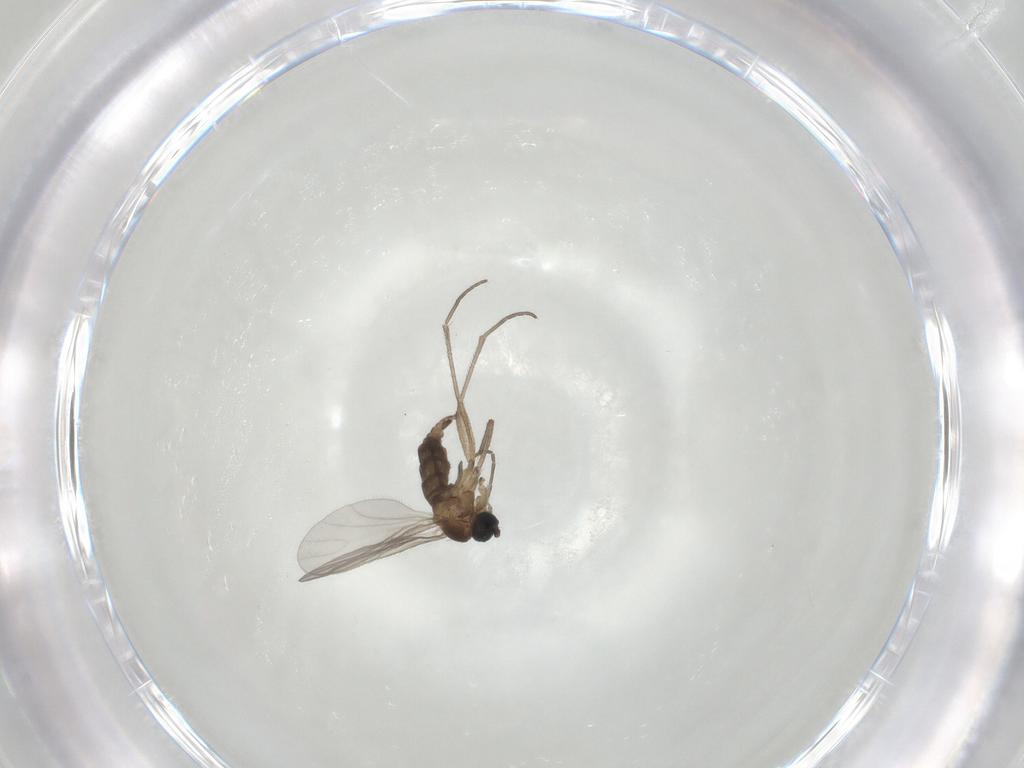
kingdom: Animalia
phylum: Arthropoda
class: Insecta
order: Diptera
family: Sciaridae
